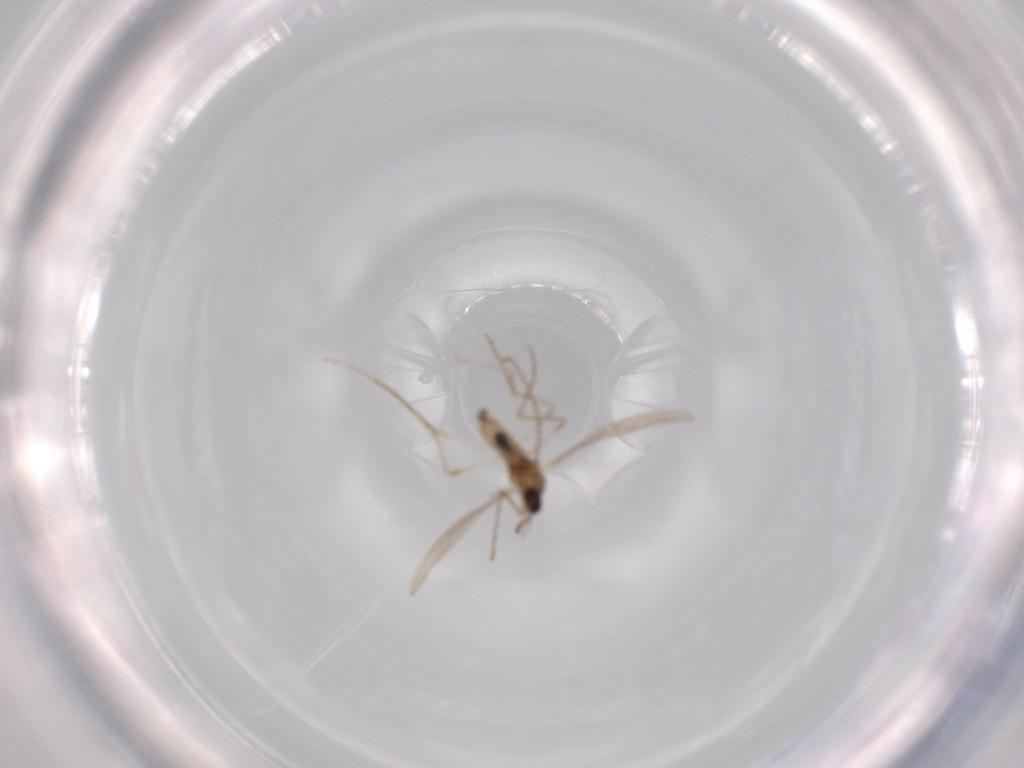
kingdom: Animalia
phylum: Arthropoda
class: Insecta
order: Diptera
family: Cecidomyiidae
